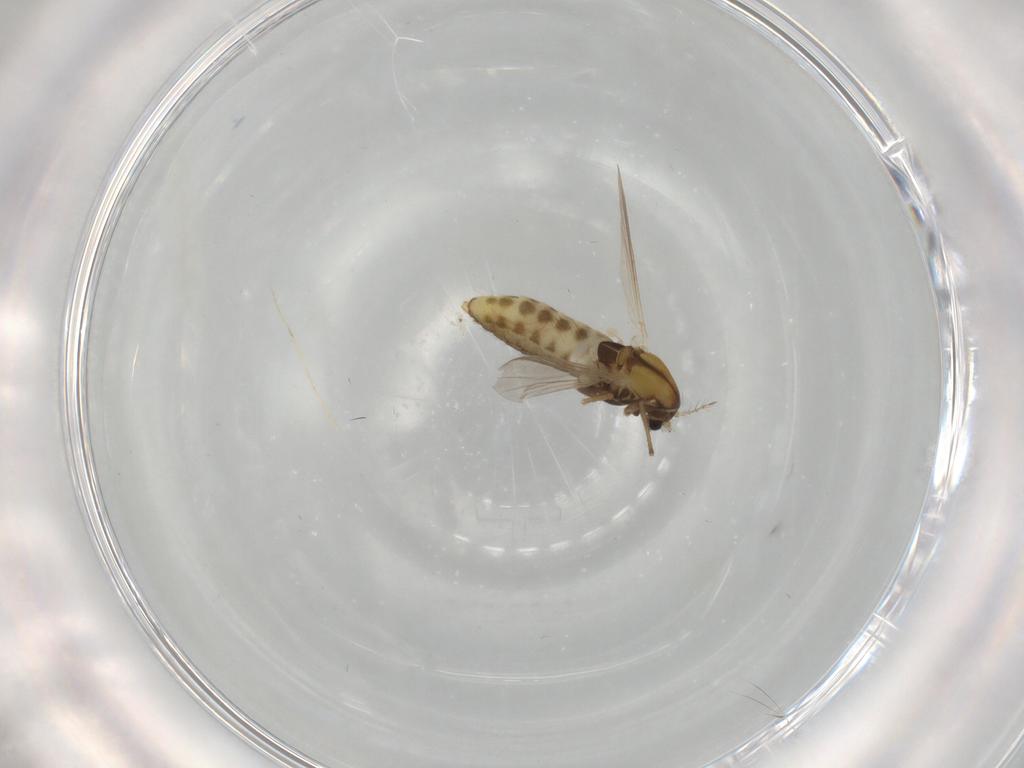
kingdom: Animalia
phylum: Arthropoda
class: Insecta
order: Diptera
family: Chironomidae
